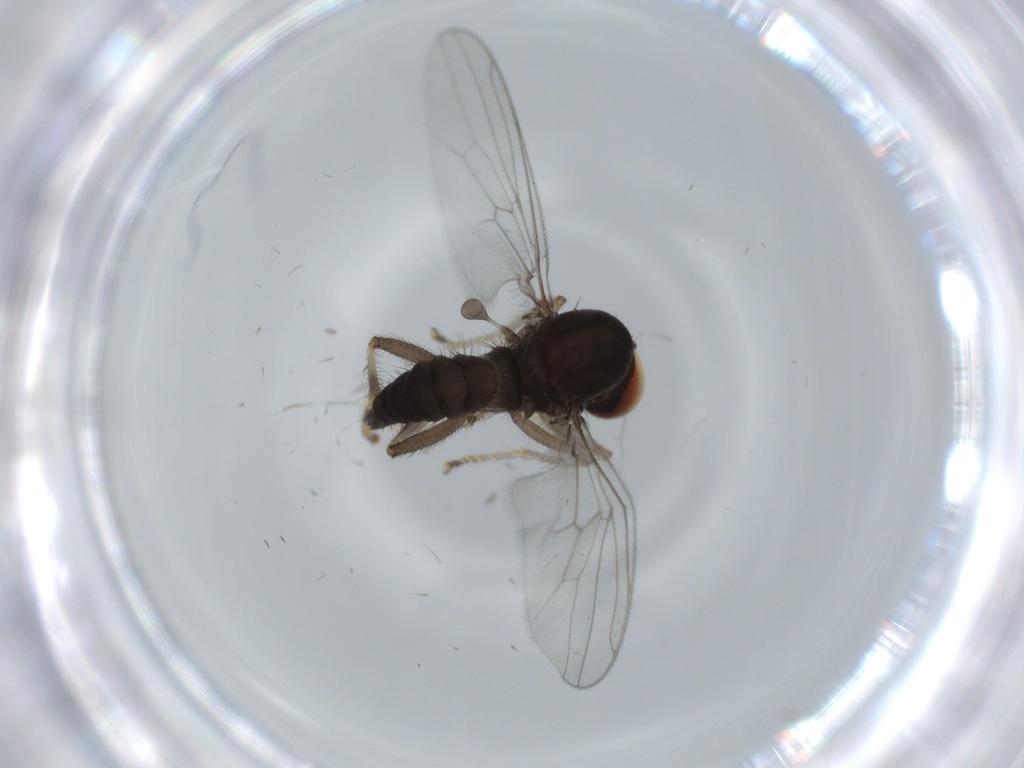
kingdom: Animalia
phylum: Arthropoda
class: Insecta
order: Diptera
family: Hybotidae
